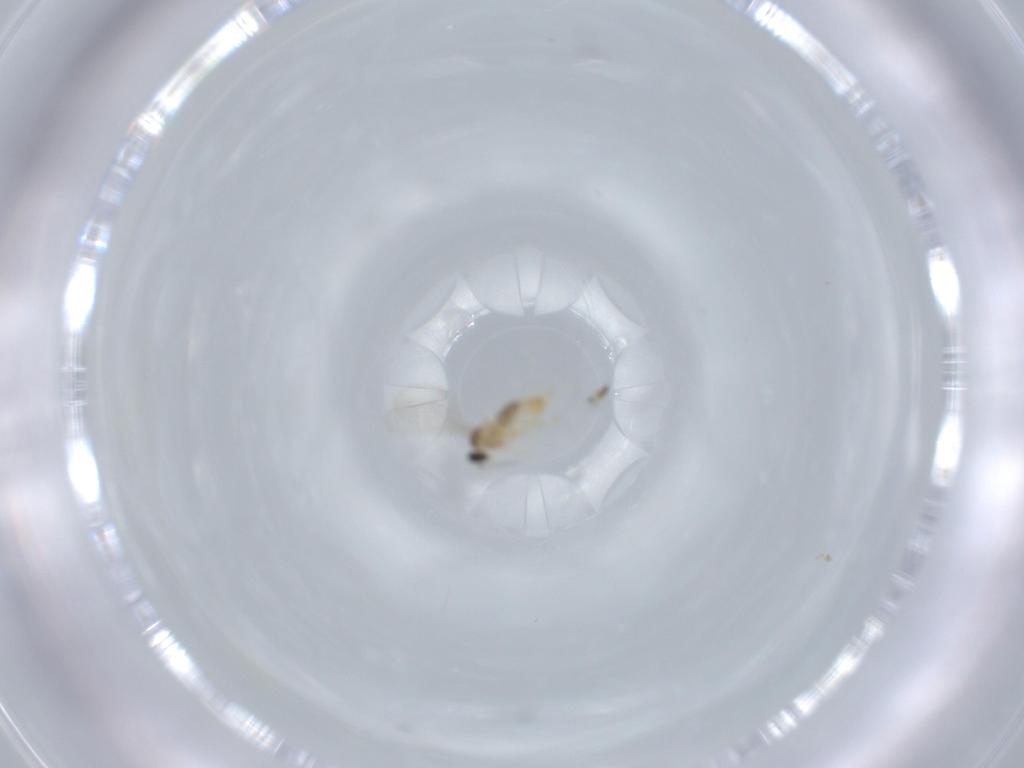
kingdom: Animalia
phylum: Arthropoda
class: Insecta
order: Diptera
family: Cecidomyiidae
